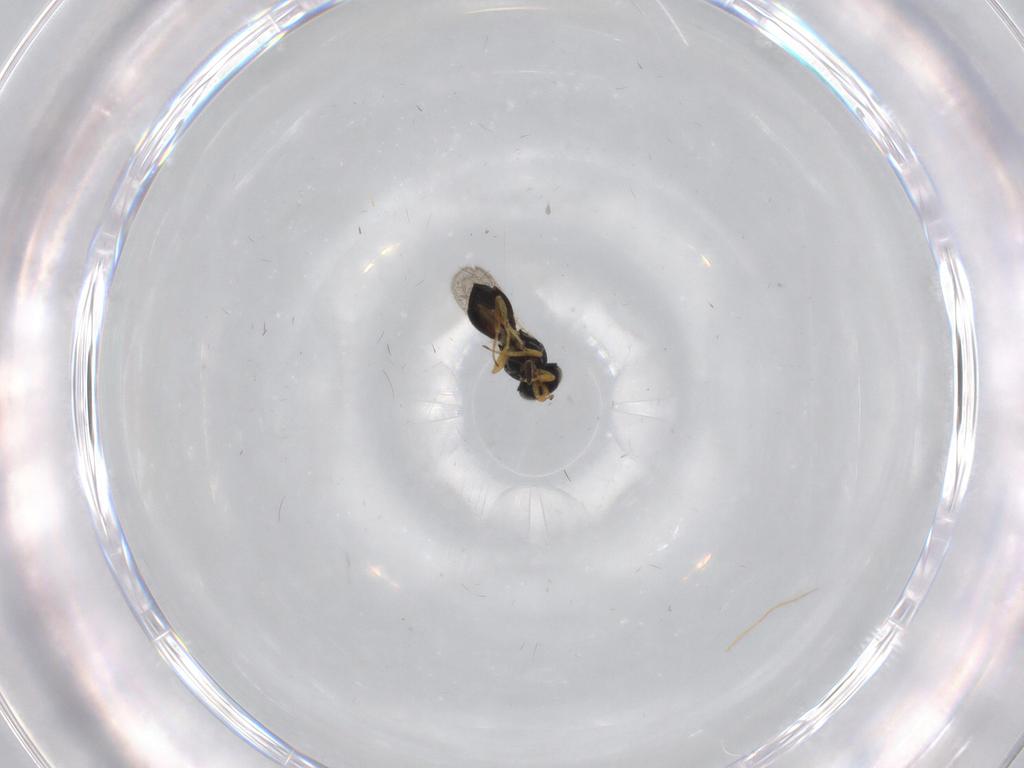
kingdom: Animalia
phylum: Arthropoda
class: Insecta
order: Hymenoptera
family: Scelionidae
